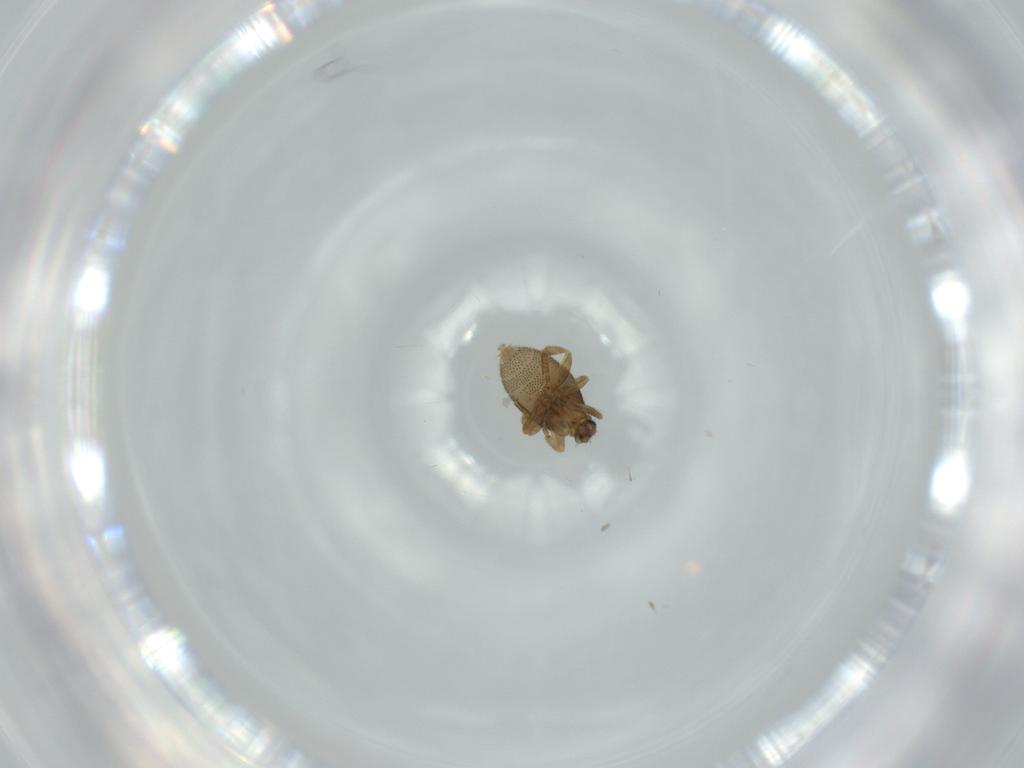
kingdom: Animalia
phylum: Arthropoda
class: Insecta
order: Diptera
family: Phoridae
